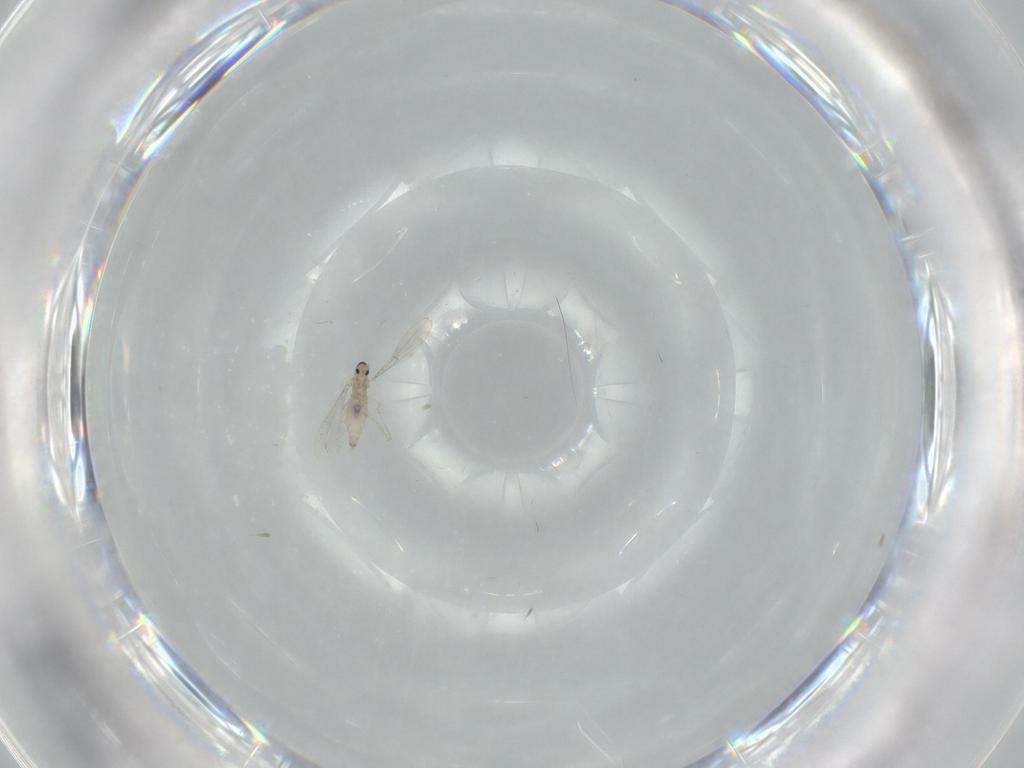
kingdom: Animalia
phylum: Arthropoda
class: Insecta
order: Diptera
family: Cecidomyiidae
